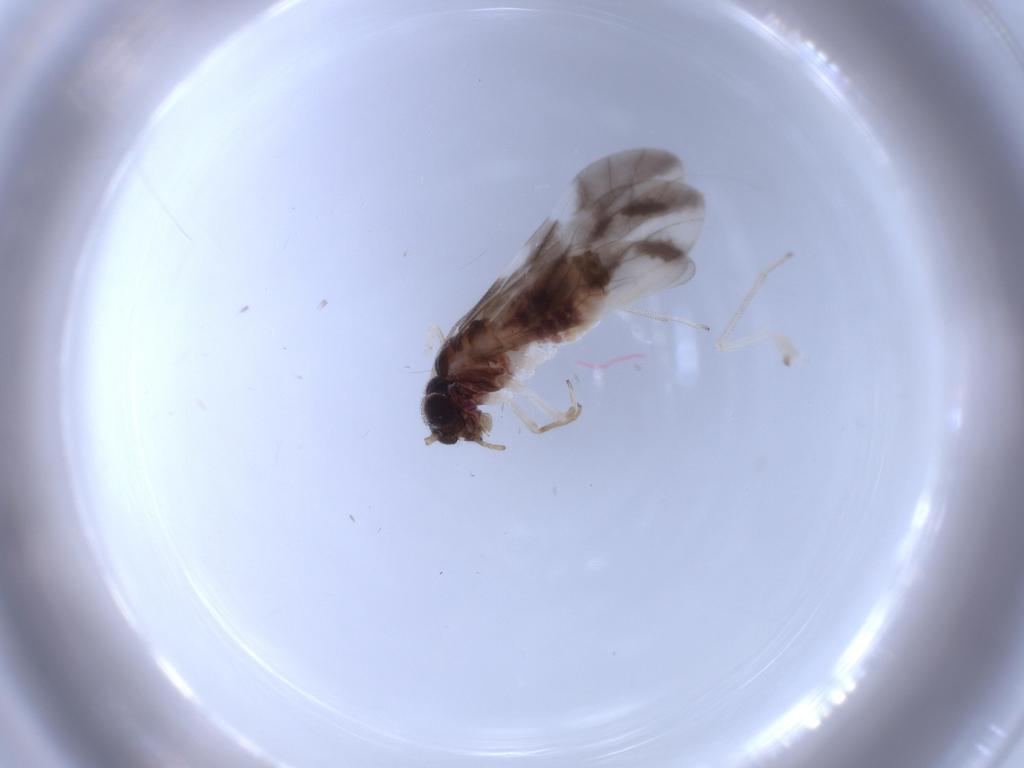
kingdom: Animalia
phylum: Arthropoda
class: Insecta
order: Psocodea
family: Caeciliusidae
